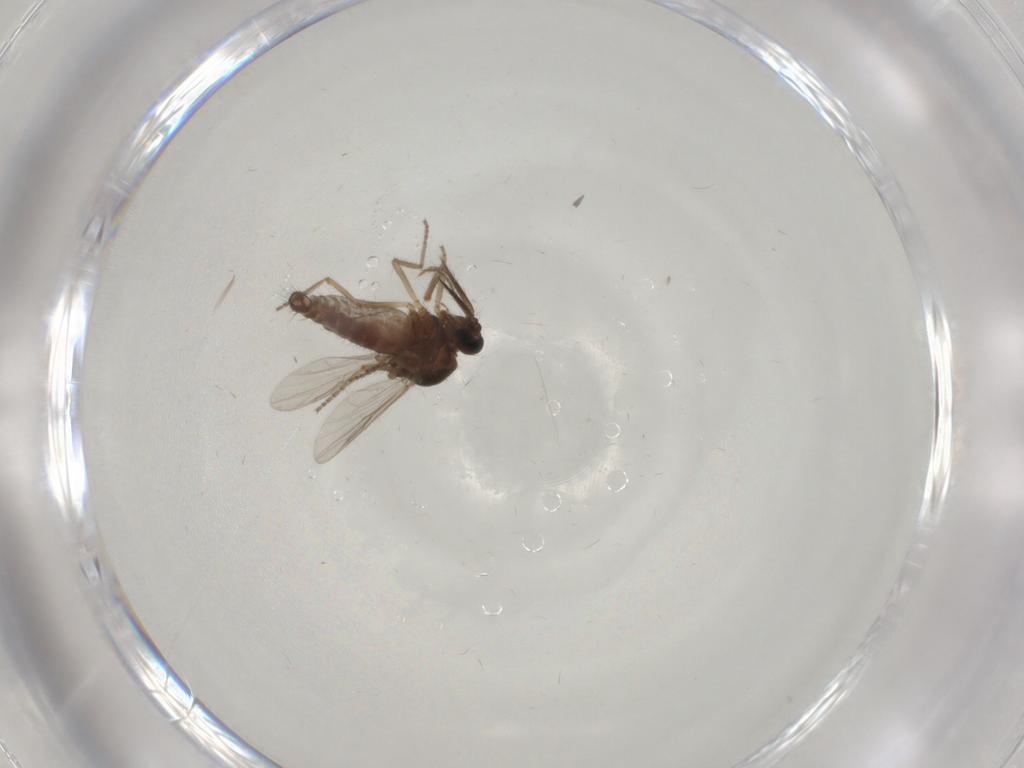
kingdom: Animalia
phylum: Arthropoda
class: Insecta
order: Diptera
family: Ceratopogonidae
